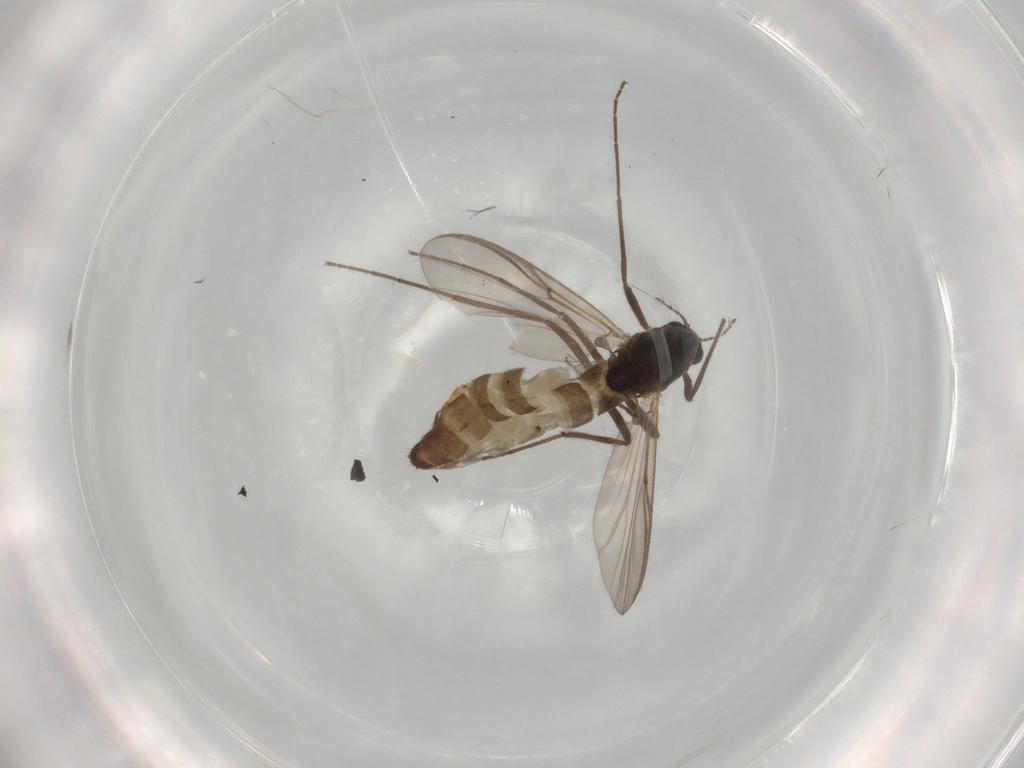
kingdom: Animalia
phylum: Arthropoda
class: Insecta
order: Diptera
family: Chironomidae
